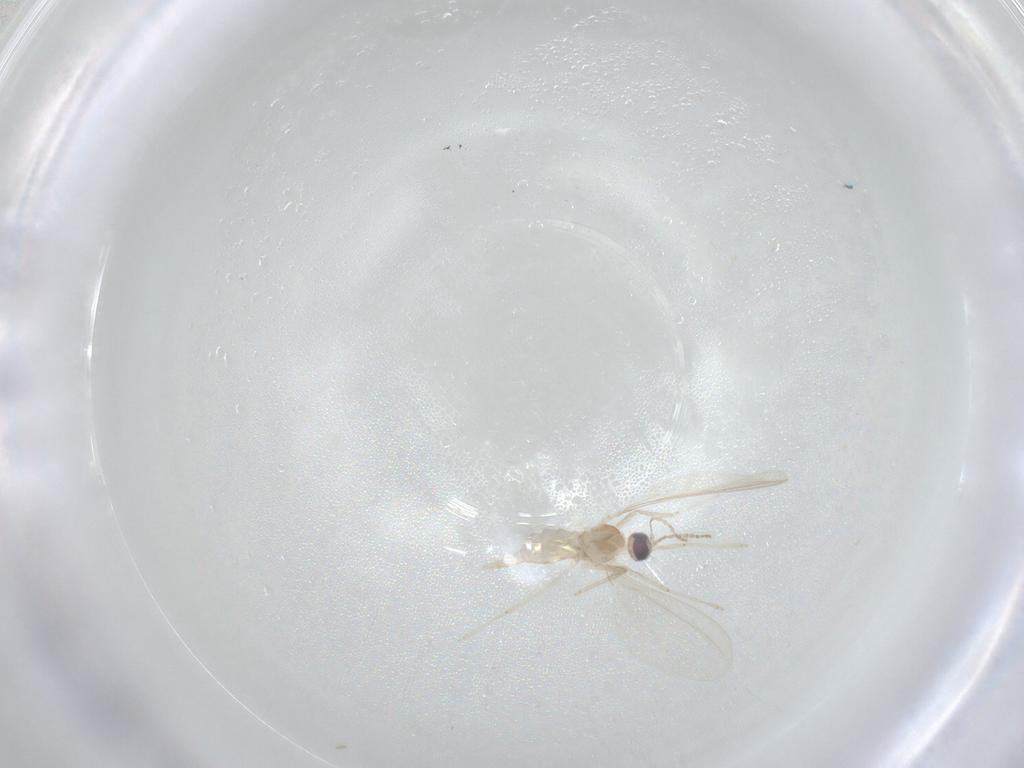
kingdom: Animalia
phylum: Arthropoda
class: Insecta
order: Diptera
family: Cecidomyiidae
